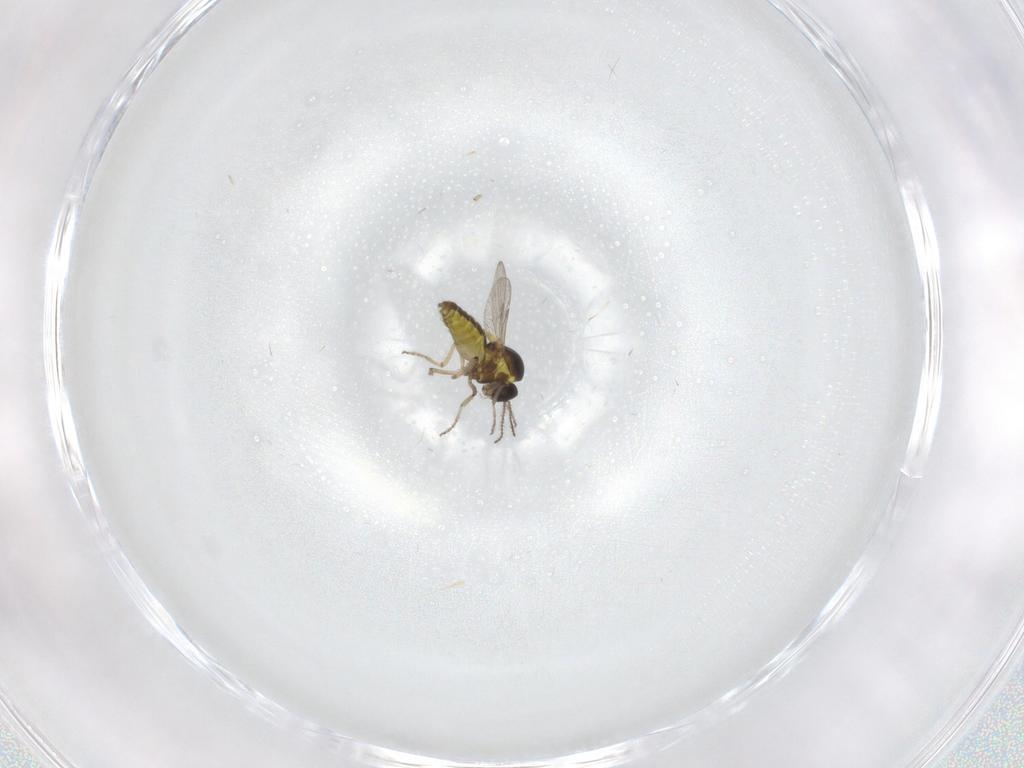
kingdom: Animalia
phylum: Arthropoda
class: Insecta
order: Diptera
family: Ceratopogonidae
